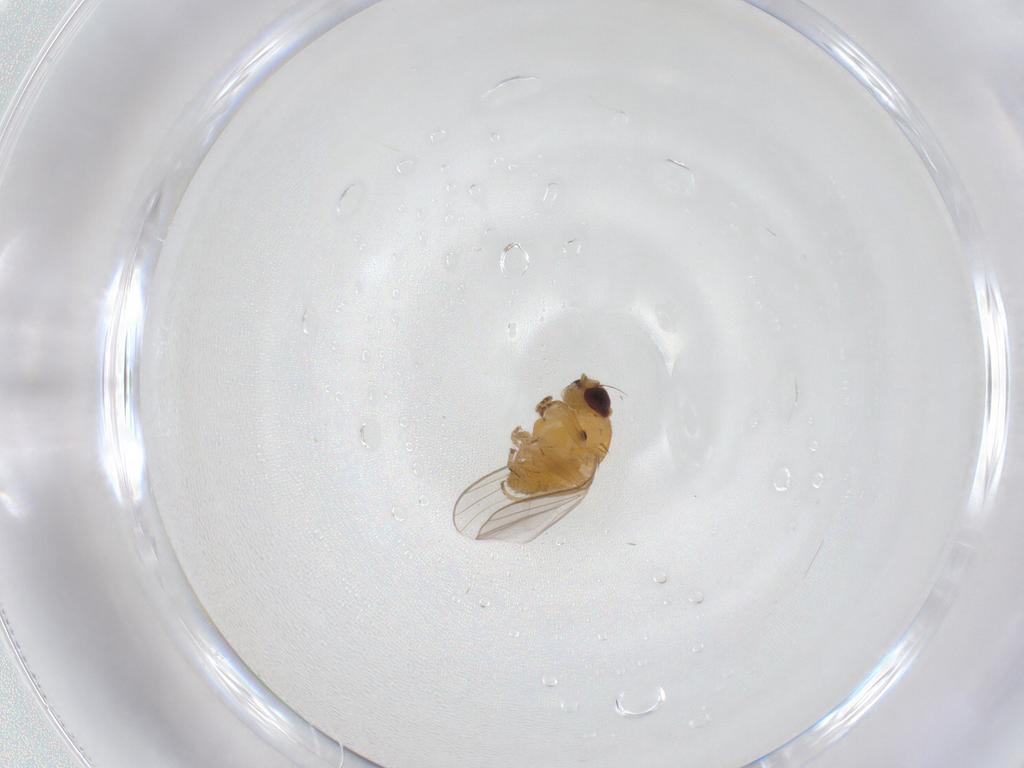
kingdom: Animalia
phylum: Arthropoda
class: Insecta
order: Diptera
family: Chloropidae
